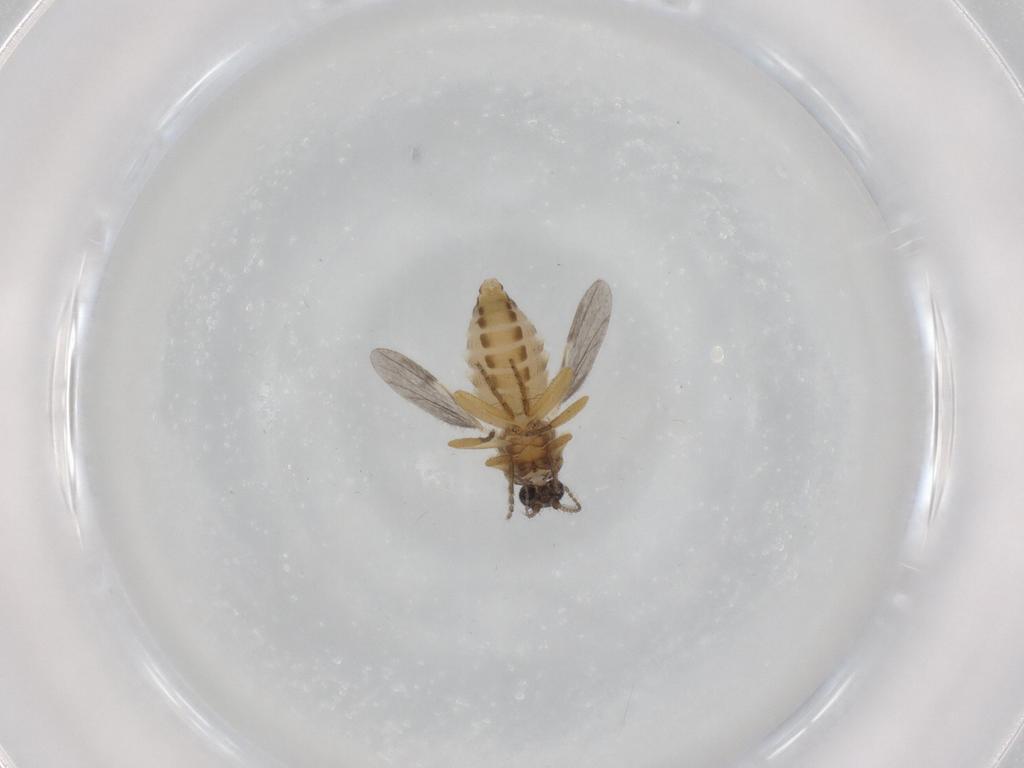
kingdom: Animalia
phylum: Arthropoda
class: Insecta
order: Diptera
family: Ceratopogonidae
